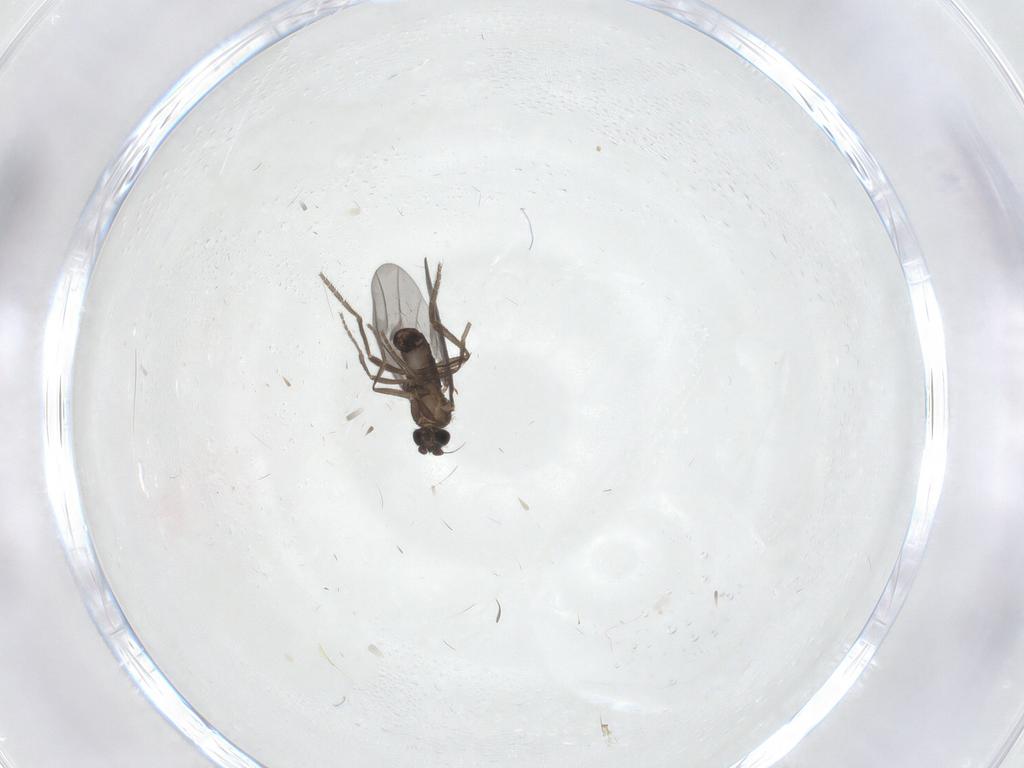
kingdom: Animalia
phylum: Arthropoda
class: Insecta
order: Diptera
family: Phoridae
